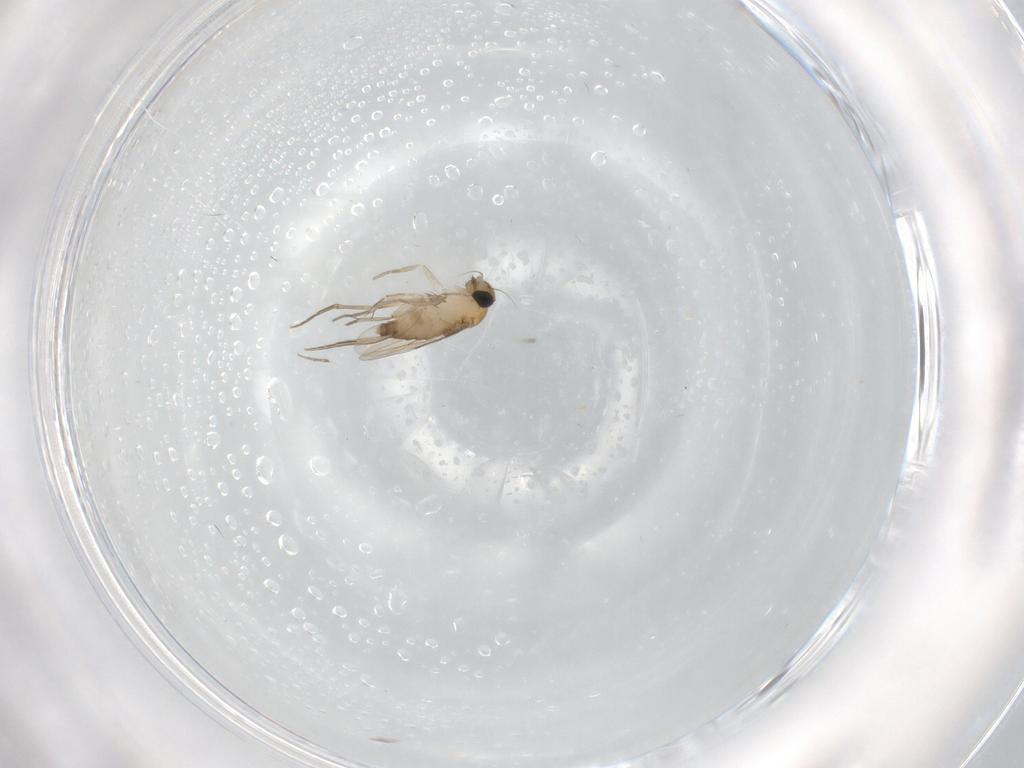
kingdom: Animalia
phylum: Arthropoda
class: Insecta
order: Diptera
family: Phoridae
